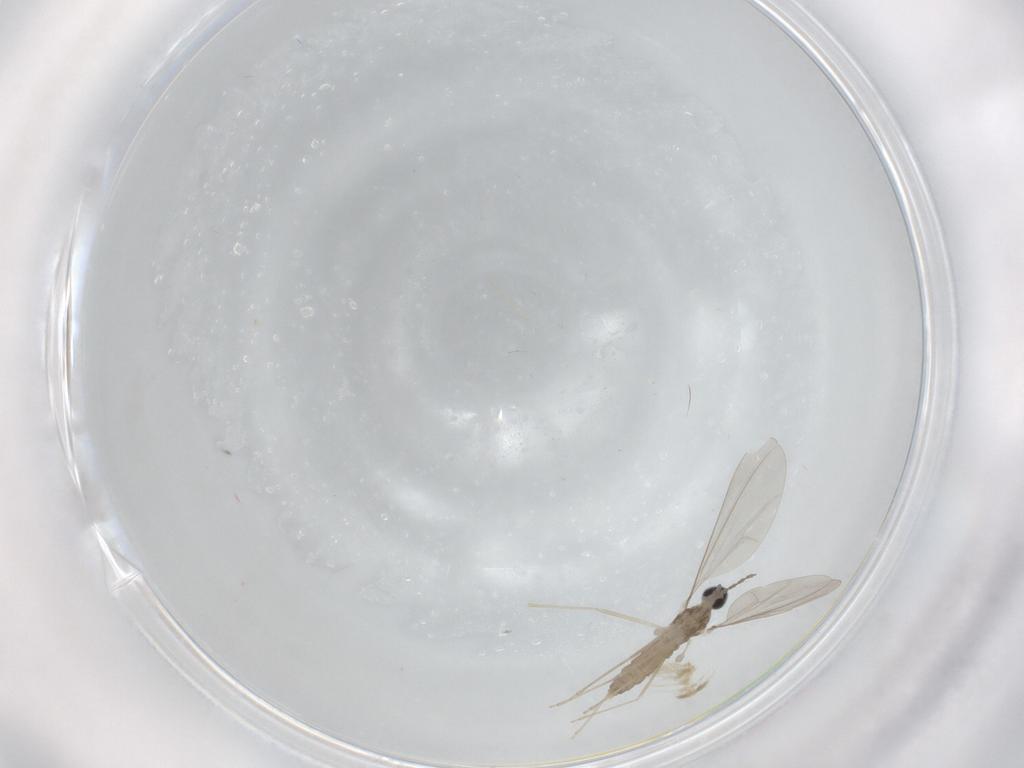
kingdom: Animalia
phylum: Arthropoda
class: Insecta
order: Diptera
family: Cecidomyiidae
